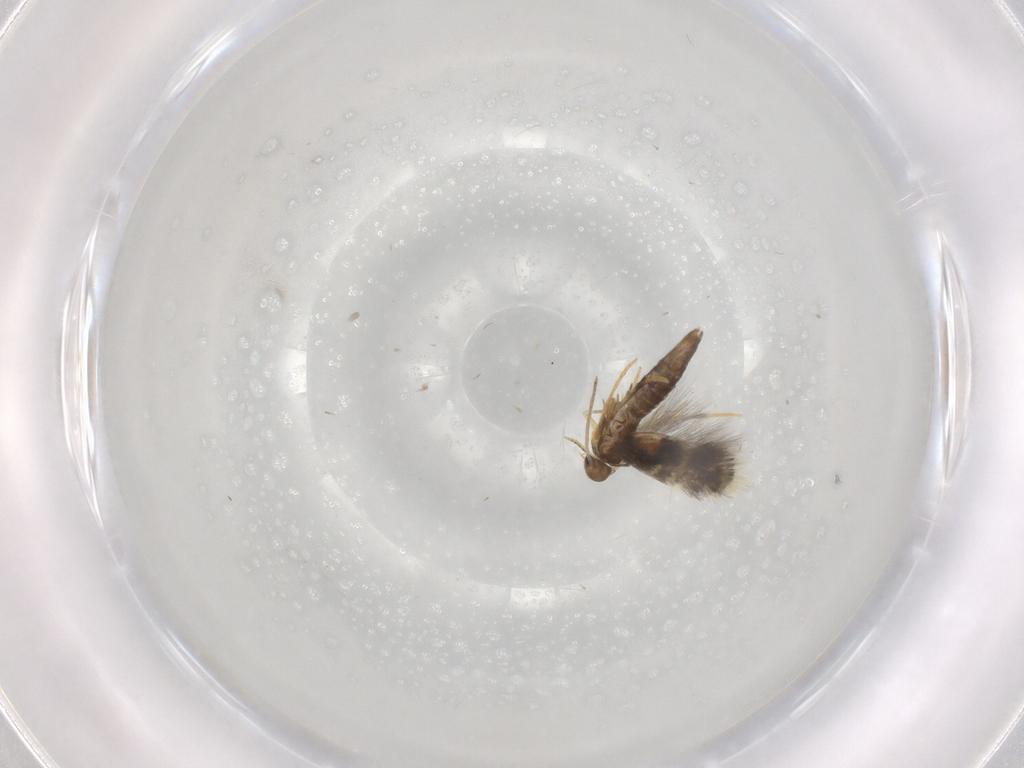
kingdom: Animalia
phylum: Arthropoda
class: Insecta
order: Lepidoptera
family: Heliozelidae
